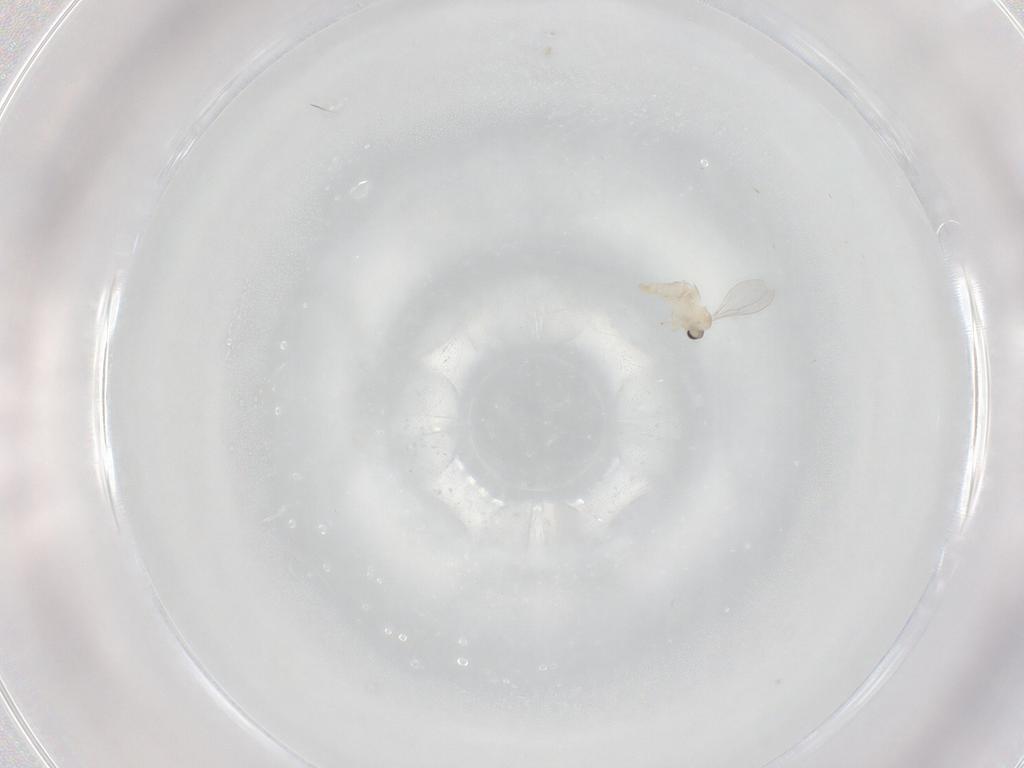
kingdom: Animalia
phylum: Arthropoda
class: Insecta
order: Diptera
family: Cecidomyiidae
